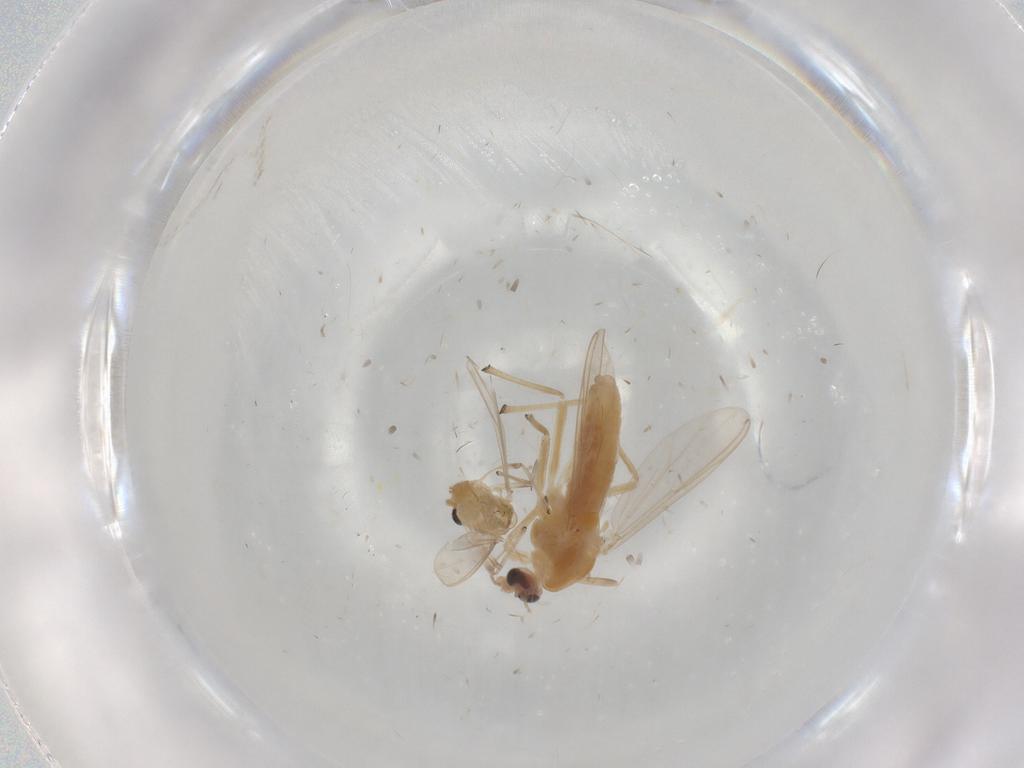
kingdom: Animalia
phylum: Arthropoda
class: Insecta
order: Diptera
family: Chironomidae
